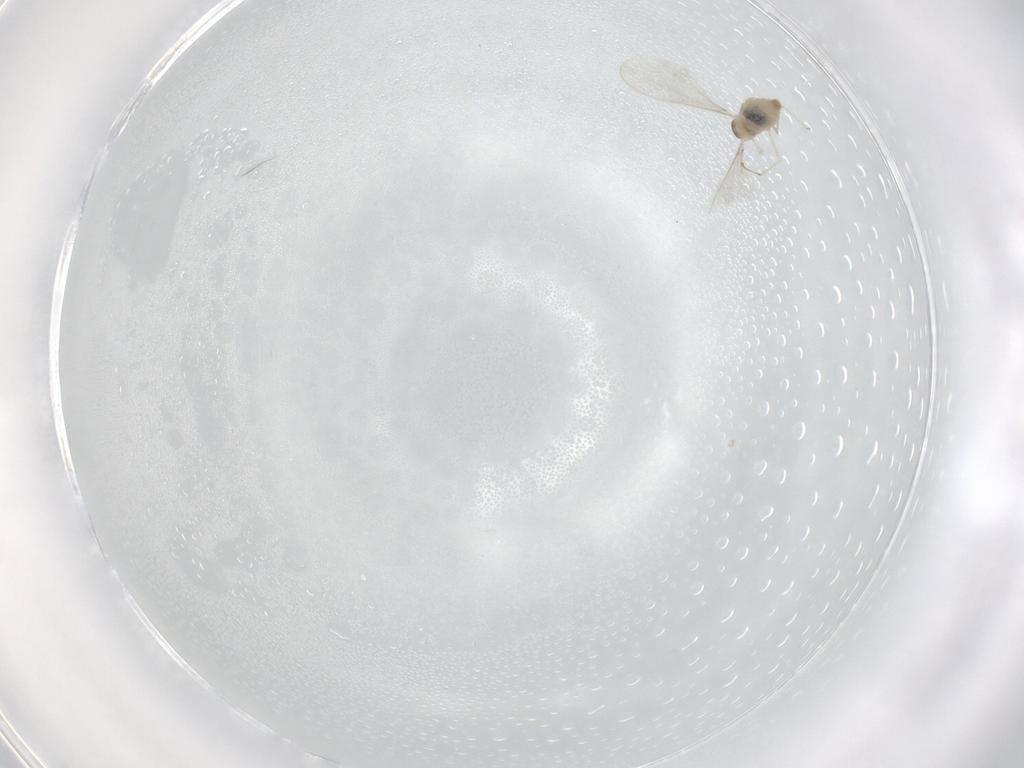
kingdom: Animalia
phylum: Arthropoda
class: Insecta
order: Diptera
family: Cecidomyiidae
